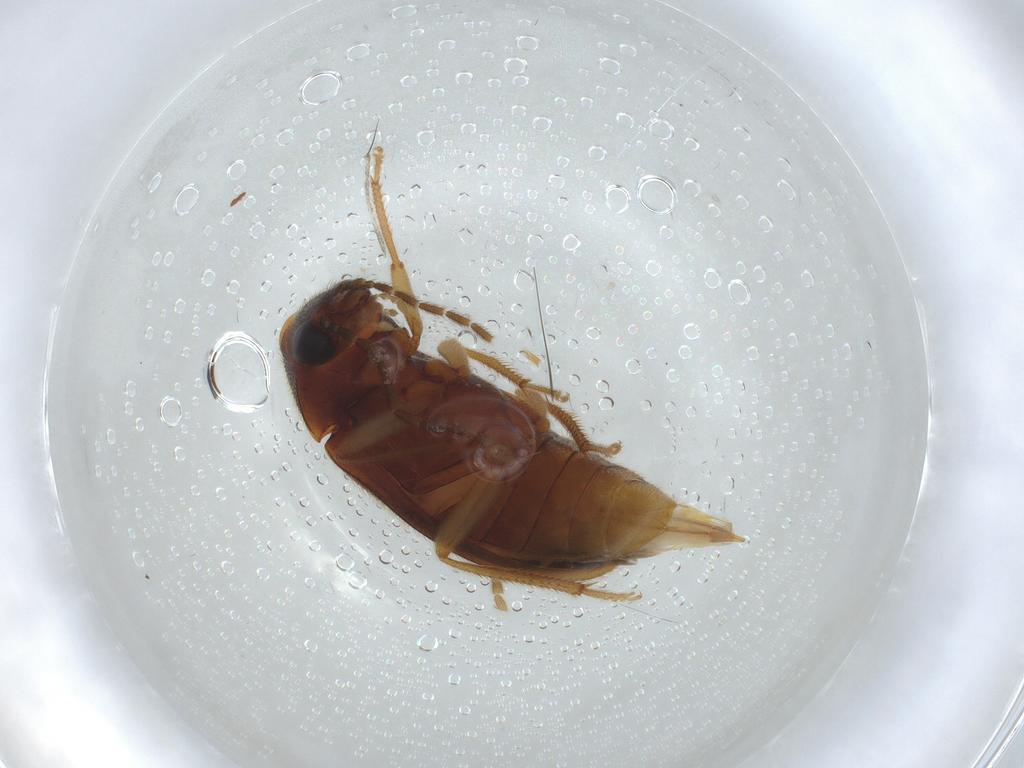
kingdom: Animalia
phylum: Arthropoda
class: Insecta
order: Coleoptera
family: Ptilodactylidae
